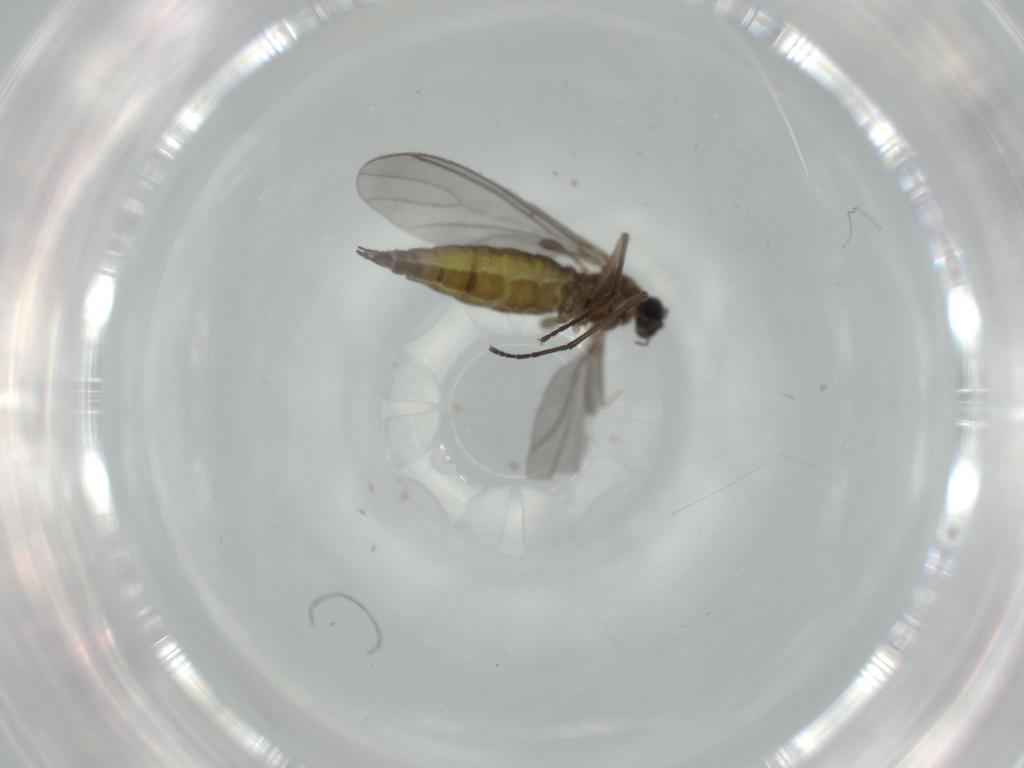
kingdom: Animalia
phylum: Arthropoda
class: Insecta
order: Diptera
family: Sciaridae
